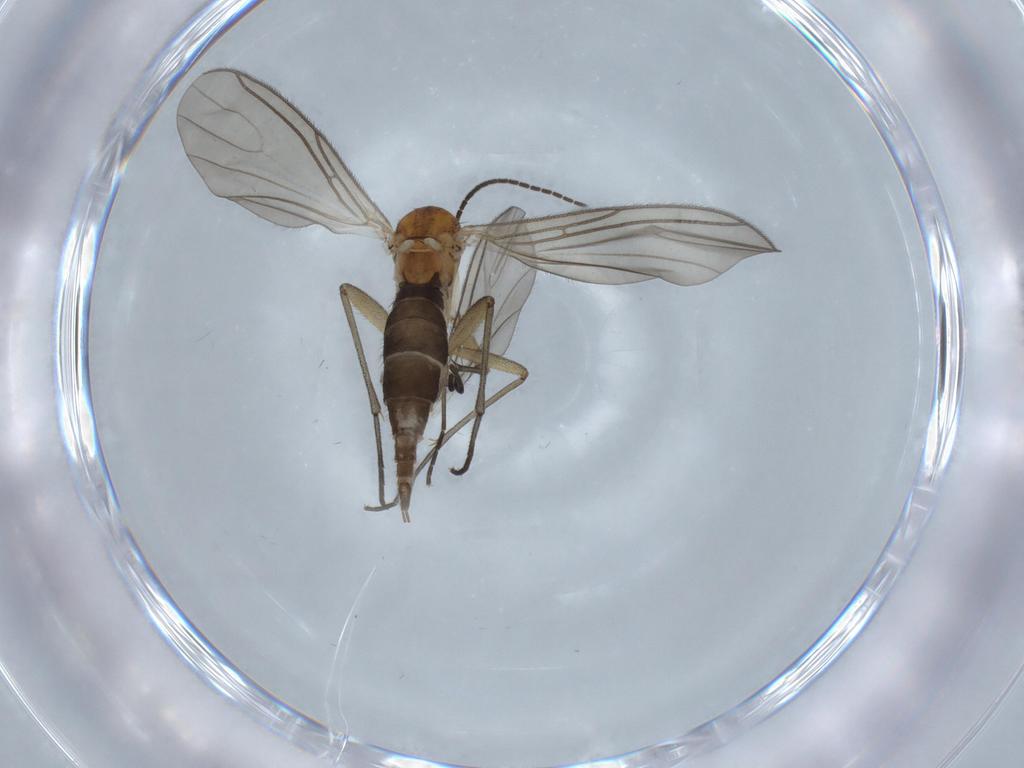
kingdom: Animalia
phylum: Arthropoda
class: Insecta
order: Diptera
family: Sciaridae
